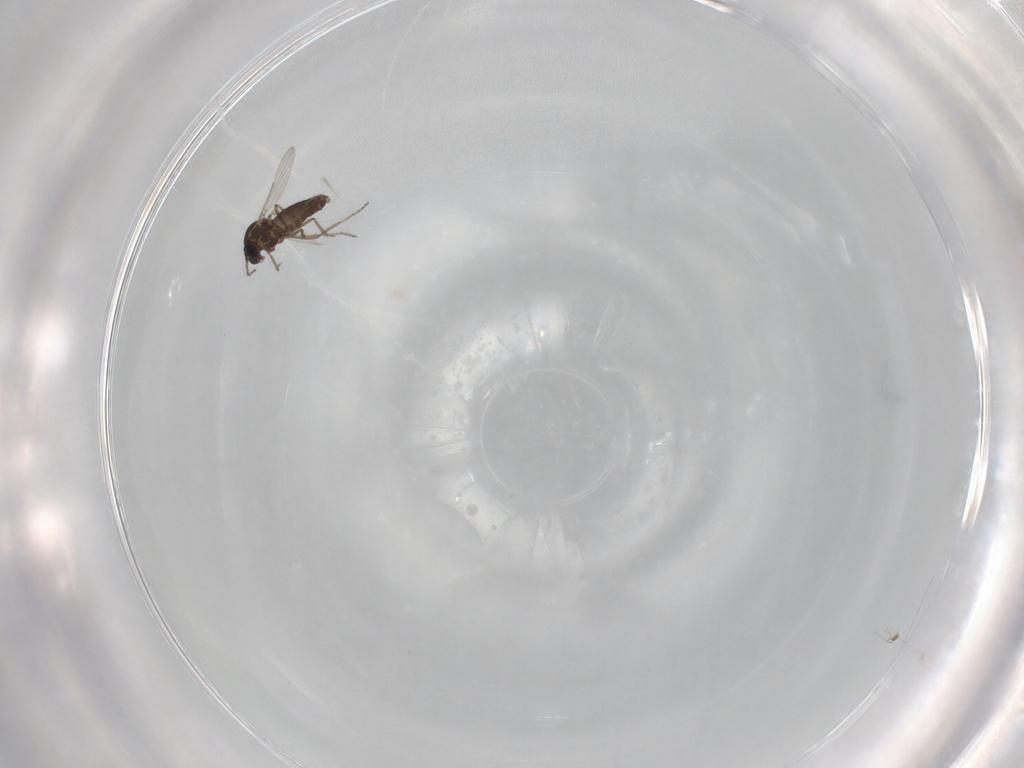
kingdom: Animalia
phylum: Arthropoda
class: Insecta
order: Diptera
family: Ceratopogonidae
